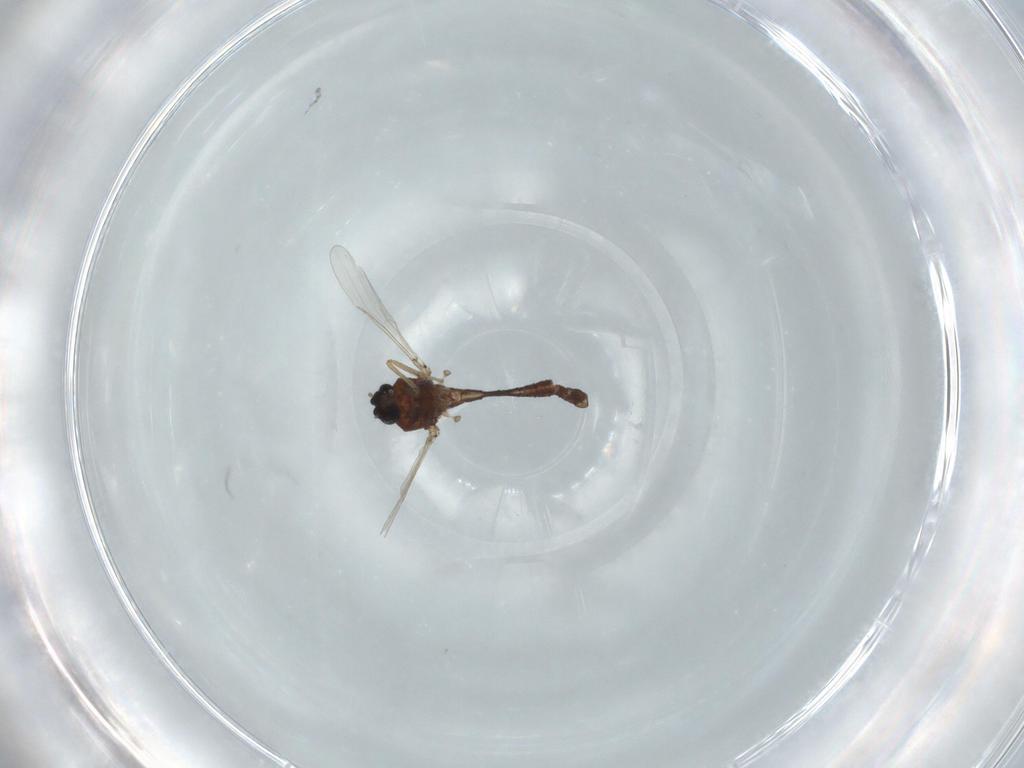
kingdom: Animalia
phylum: Arthropoda
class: Insecta
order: Diptera
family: Ceratopogonidae
